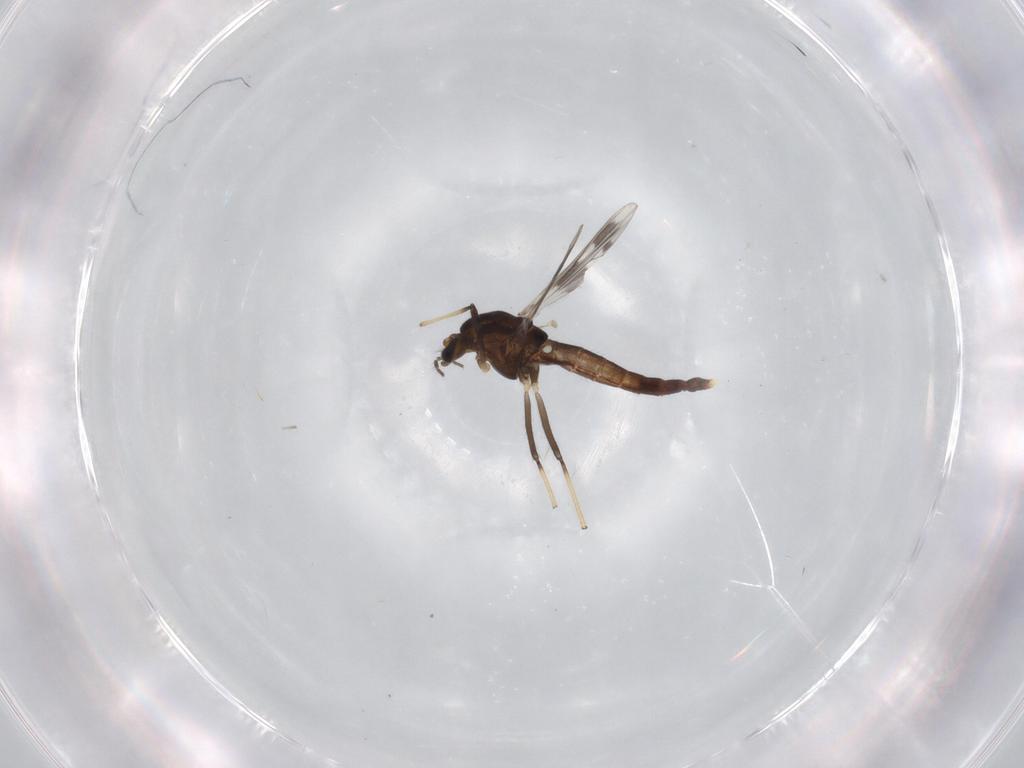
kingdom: Animalia
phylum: Arthropoda
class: Insecta
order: Diptera
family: Cecidomyiidae
